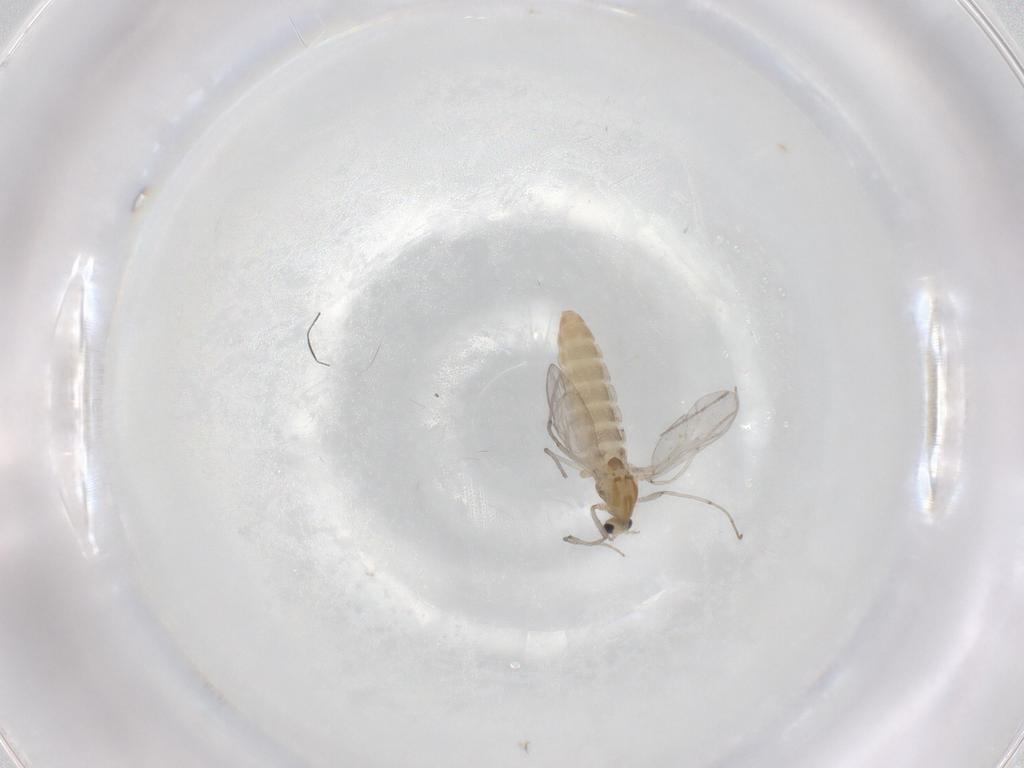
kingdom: Animalia
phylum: Arthropoda
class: Insecta
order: Diptera
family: Chironomidae
